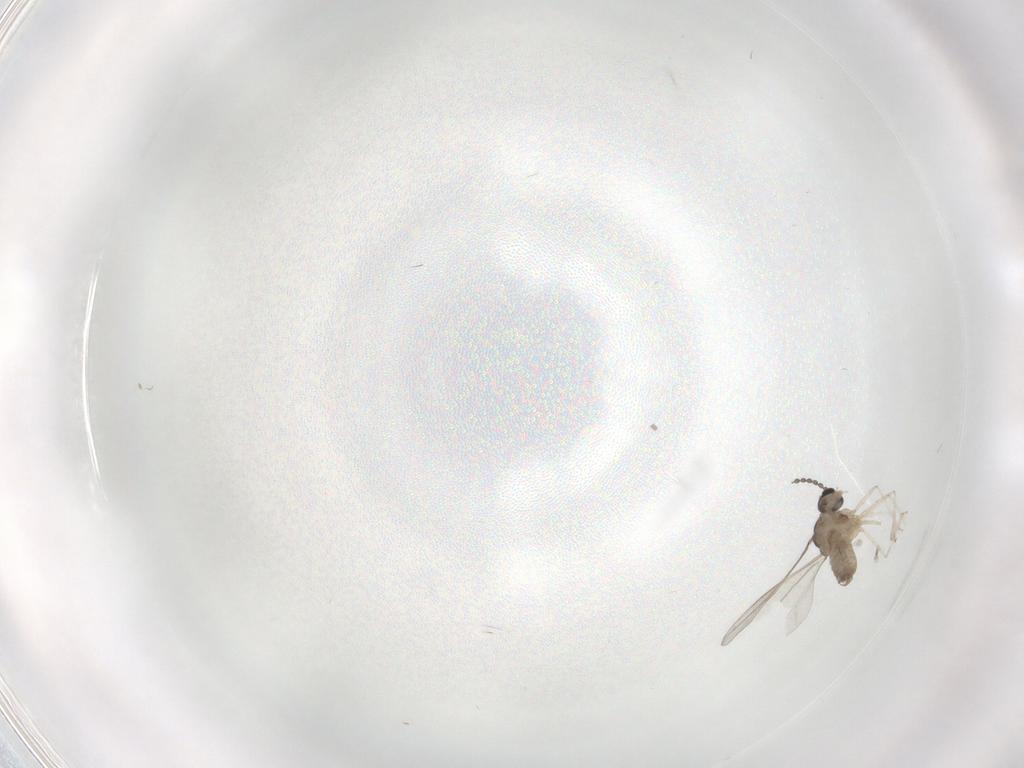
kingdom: Animalia
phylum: Arthropoda
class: Insecta
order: Diptera
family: Cecidomyiidae
